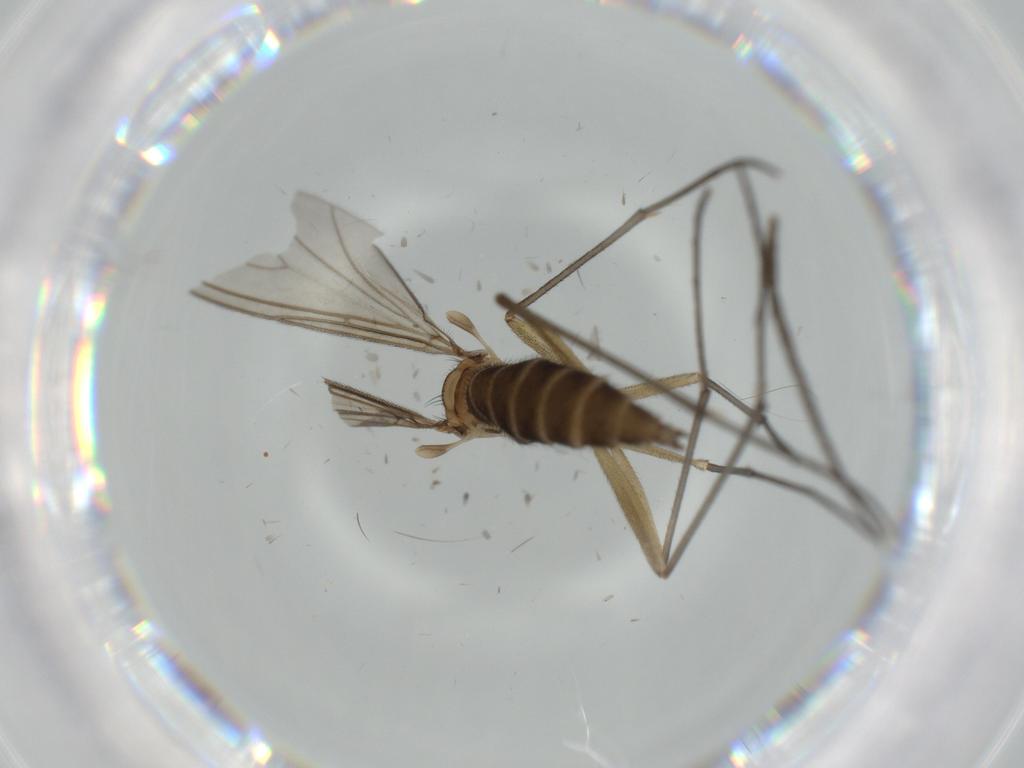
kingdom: Animalia
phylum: Arthropoda
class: Insecta
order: Diptera
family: Sciaridae
